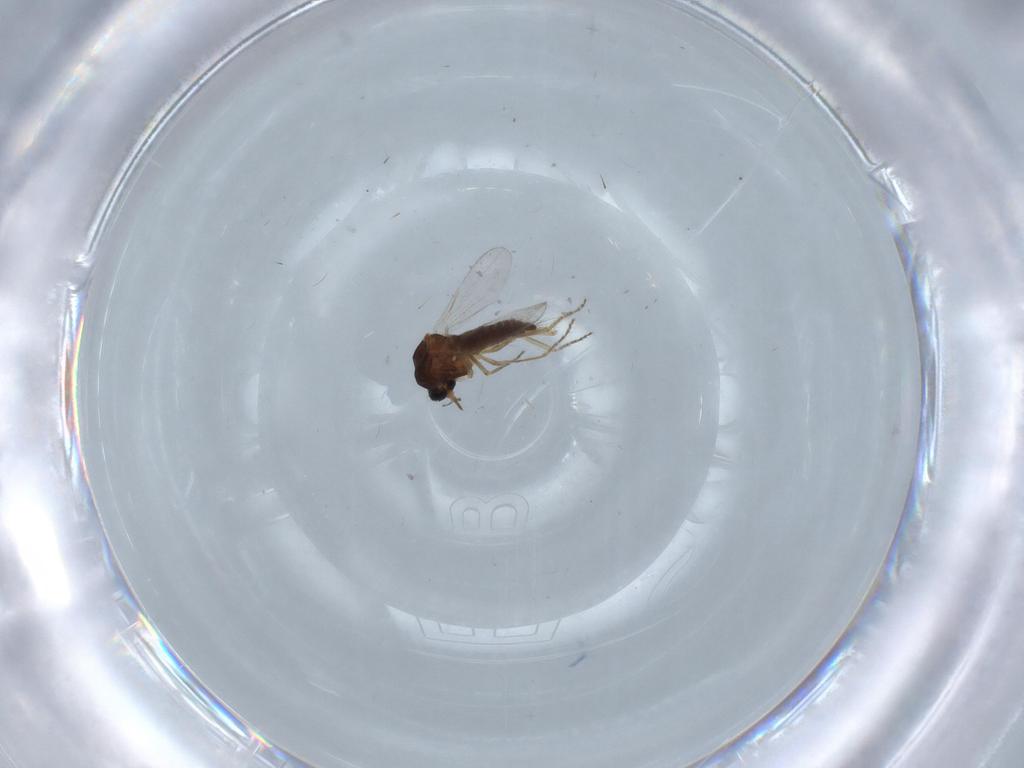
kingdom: Animalia
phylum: Arthropoda
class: Insecta
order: Diptera
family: Ceratopogonidae
